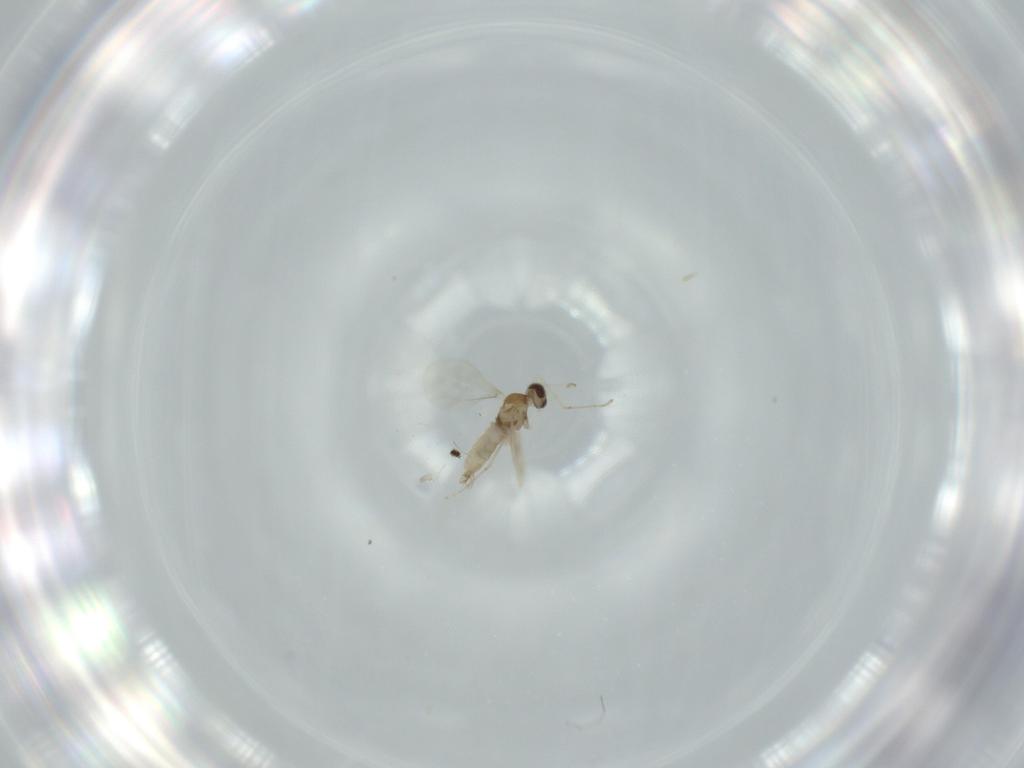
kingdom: Animalia
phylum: Arthropoda
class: Insecta
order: Diptera
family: Cecidomyiidae
